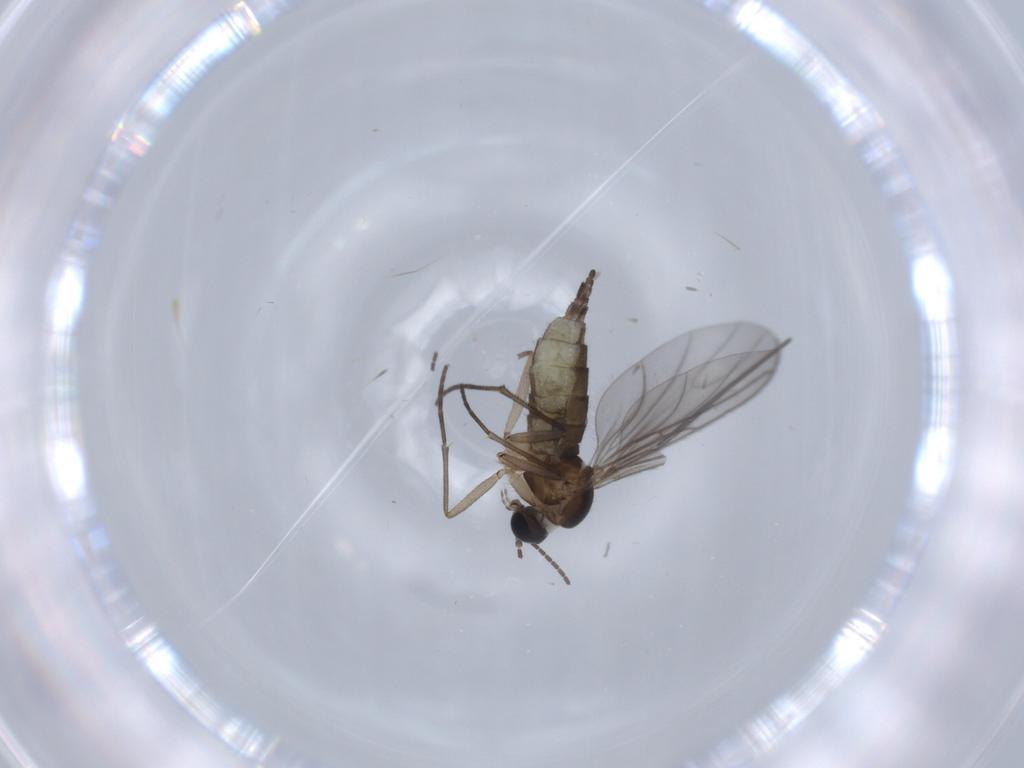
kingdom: Animalia
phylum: Arthropoda
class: Insecta
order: Diptera
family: Sciaridae
